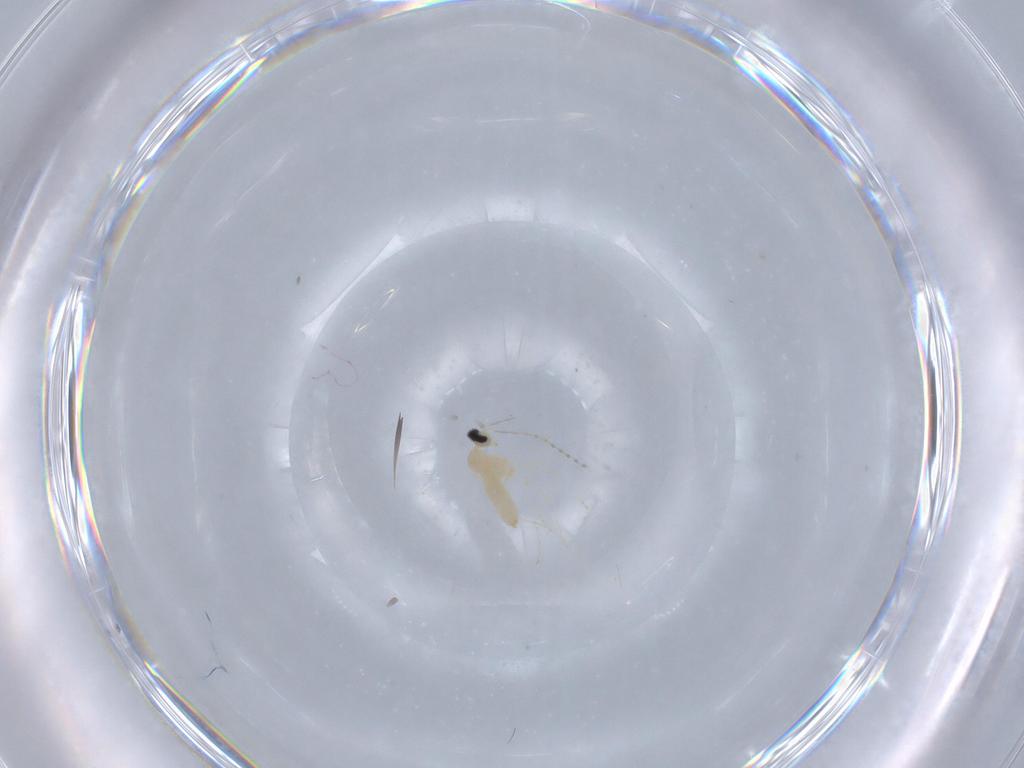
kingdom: Animalia
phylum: Arthropoda
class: Insecta
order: Diptera
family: Cecidomyiidae
